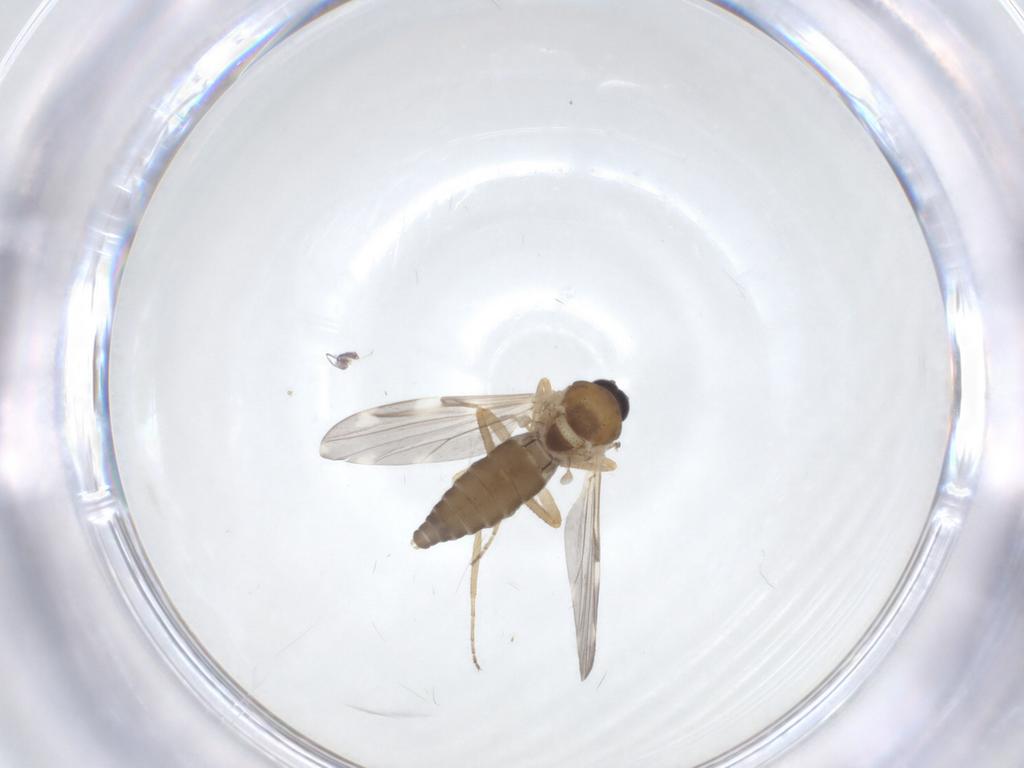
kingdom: Animalia
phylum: Arthropoda
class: Insecta
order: Diptera
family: Ceratopogonidae
